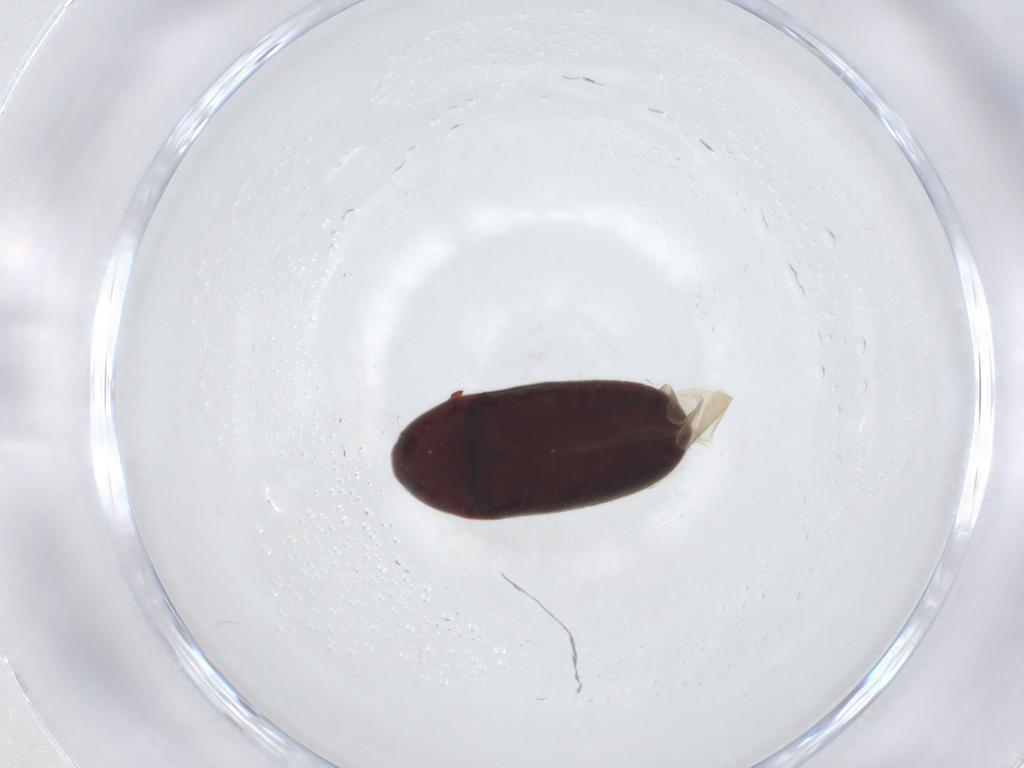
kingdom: Animalia
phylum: Arthropoda
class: Insecta
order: Coleoptera
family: Throscidae
